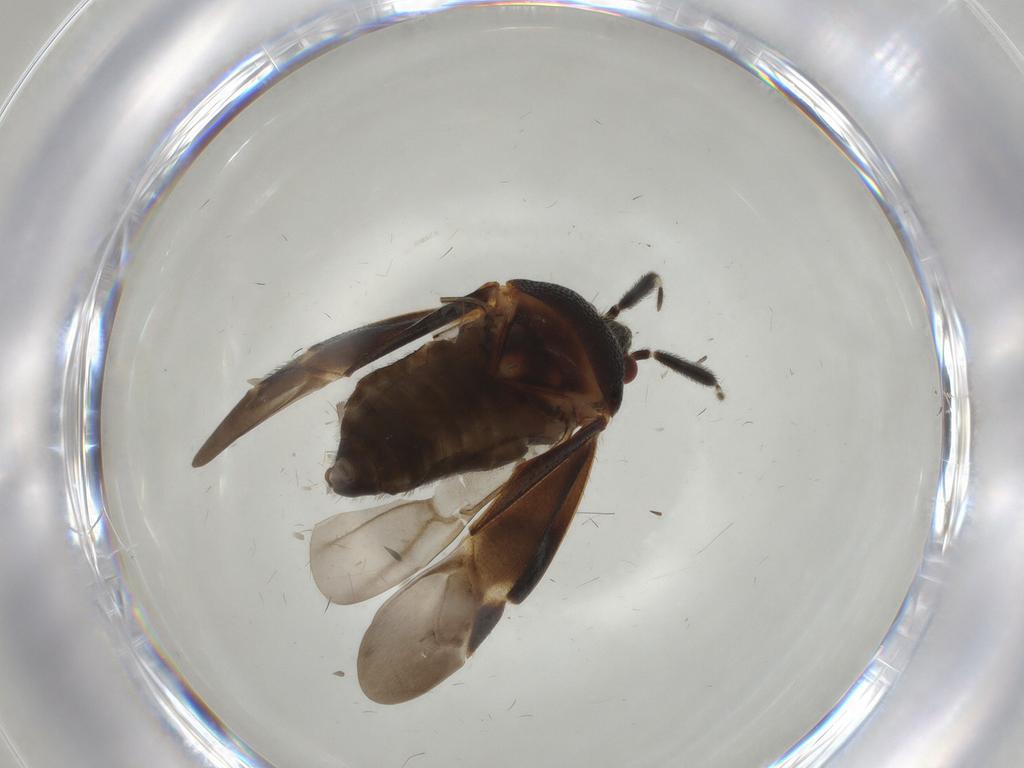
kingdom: Animalia
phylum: Arthropoda
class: Insecta
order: Hemiptera
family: Miridae
